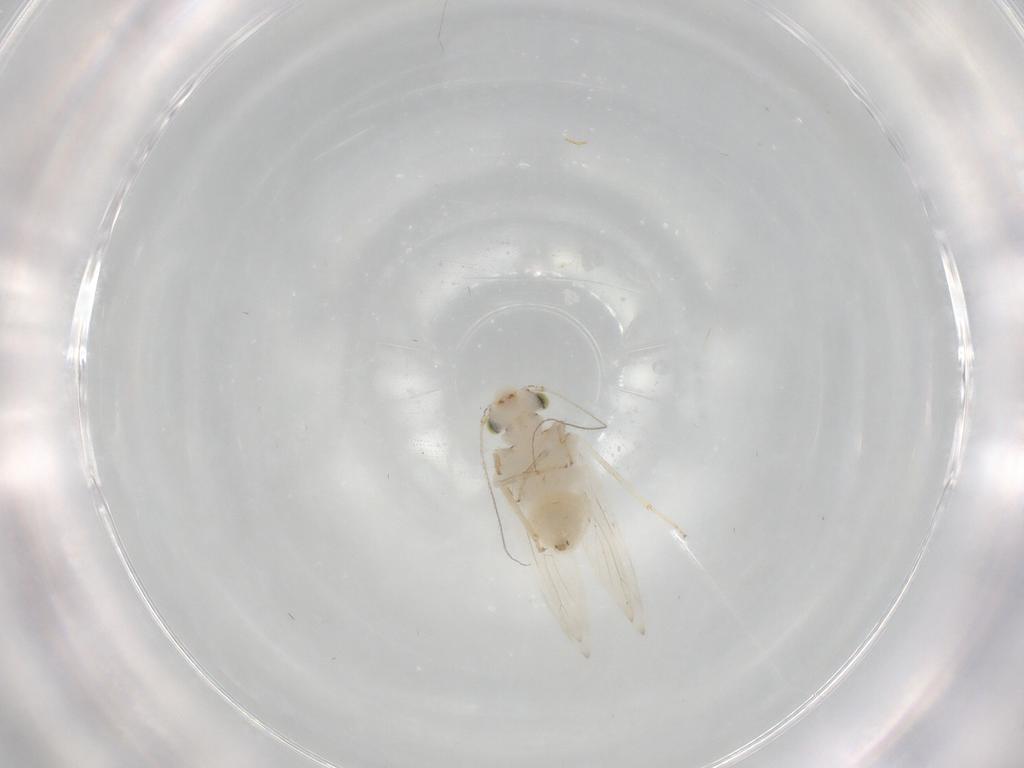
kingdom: Animalia
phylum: Arthropoda
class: Insecta
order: Psocodea
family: Lepidopsocidae
